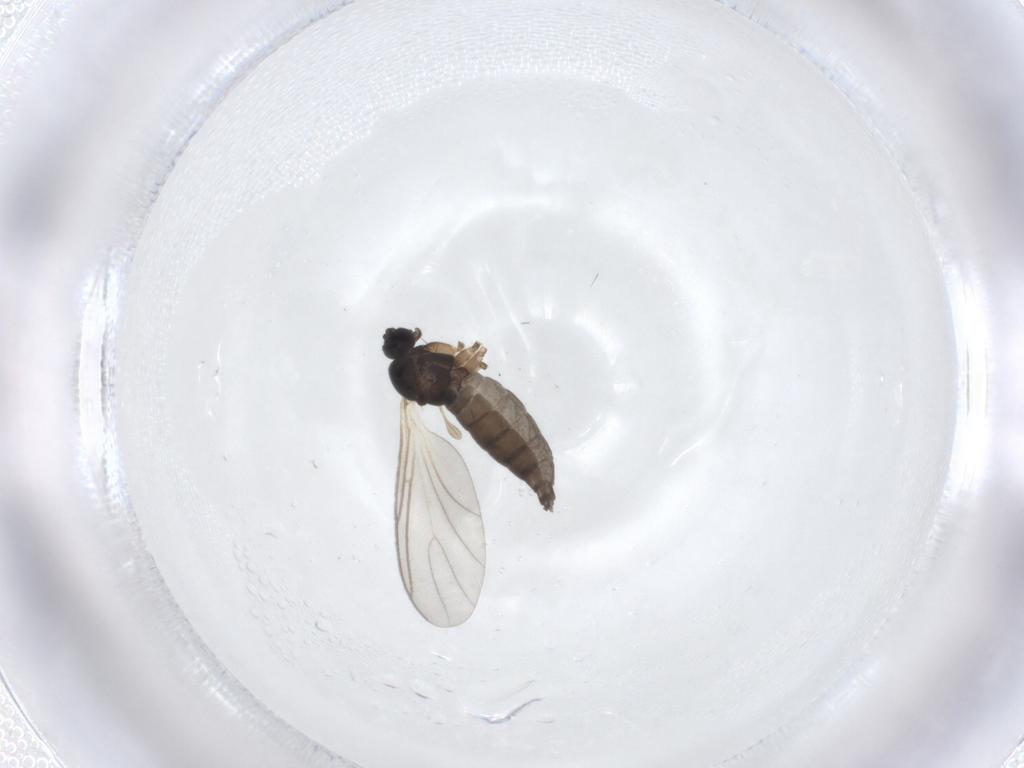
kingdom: Animalia
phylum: Arthropoda
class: Insecta
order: Diptera
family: Sciaridae
